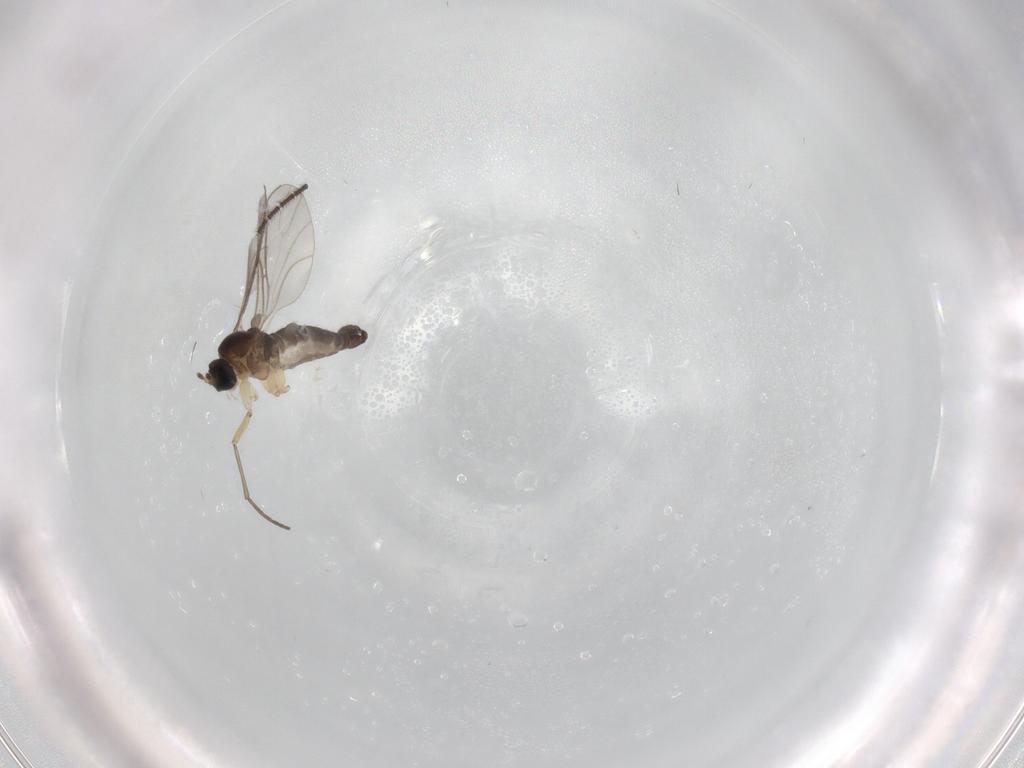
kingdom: Animalia
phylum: Arthropoda
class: Insecta
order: Diptera
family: Sciaridae
